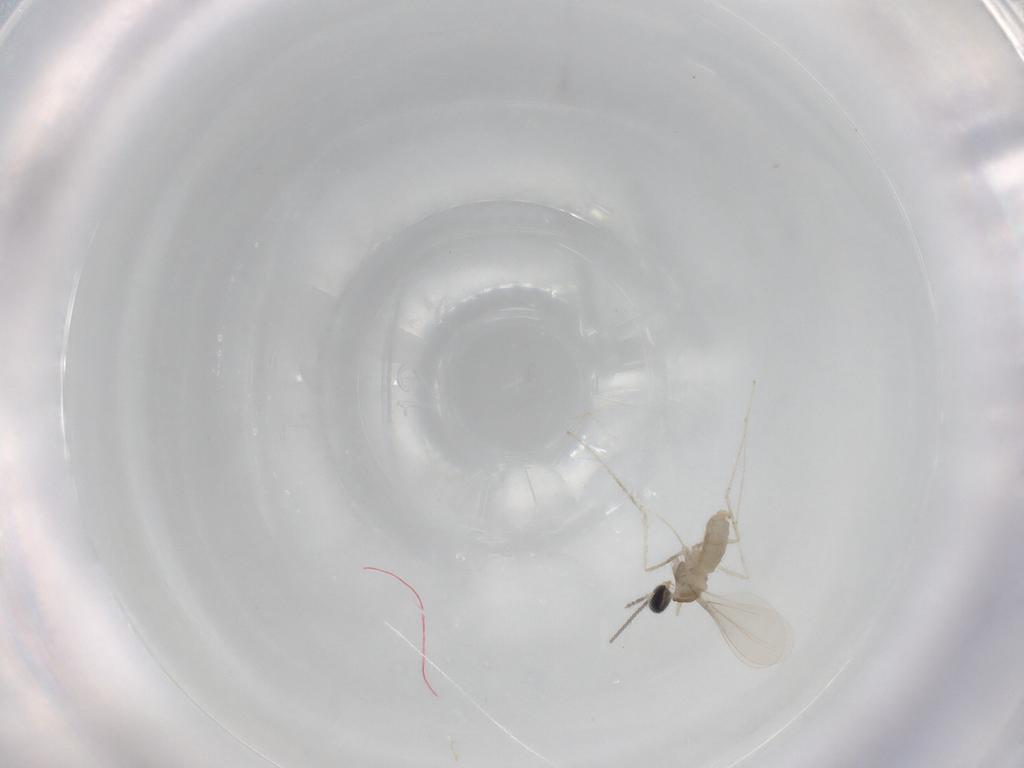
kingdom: Animalia
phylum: Arthropoda
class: Insecta
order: Diptera
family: Cecidomyiidae
